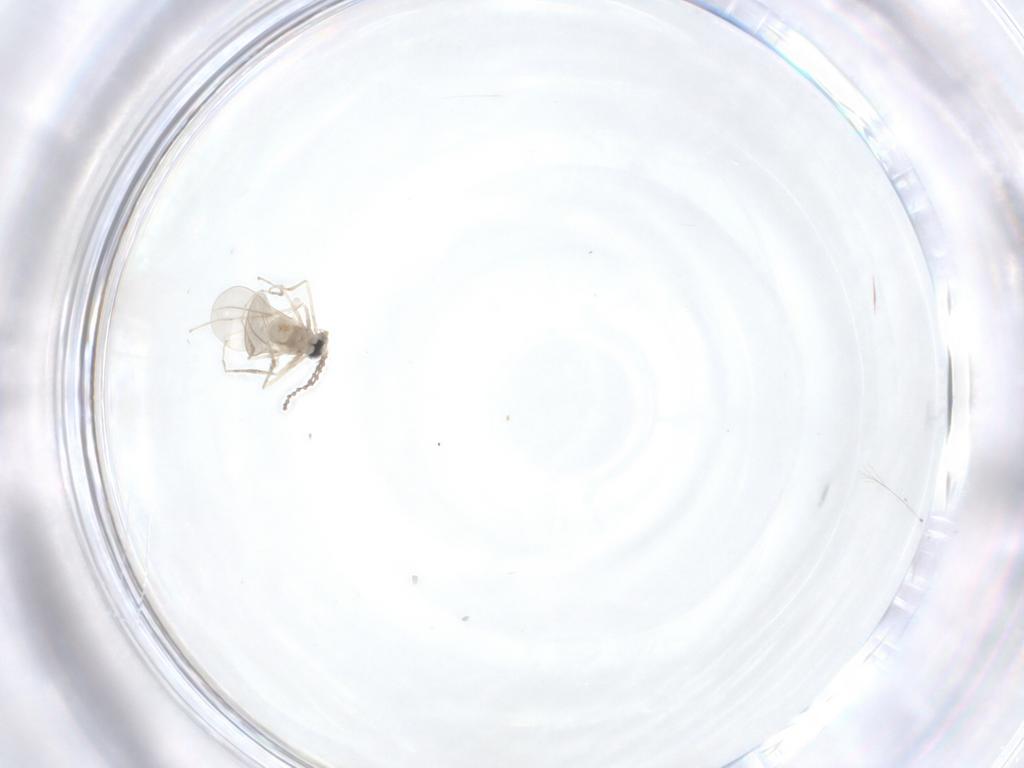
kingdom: Animalia
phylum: Arthropoda
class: Insecta
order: Diptera
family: Cecidomyiidae
